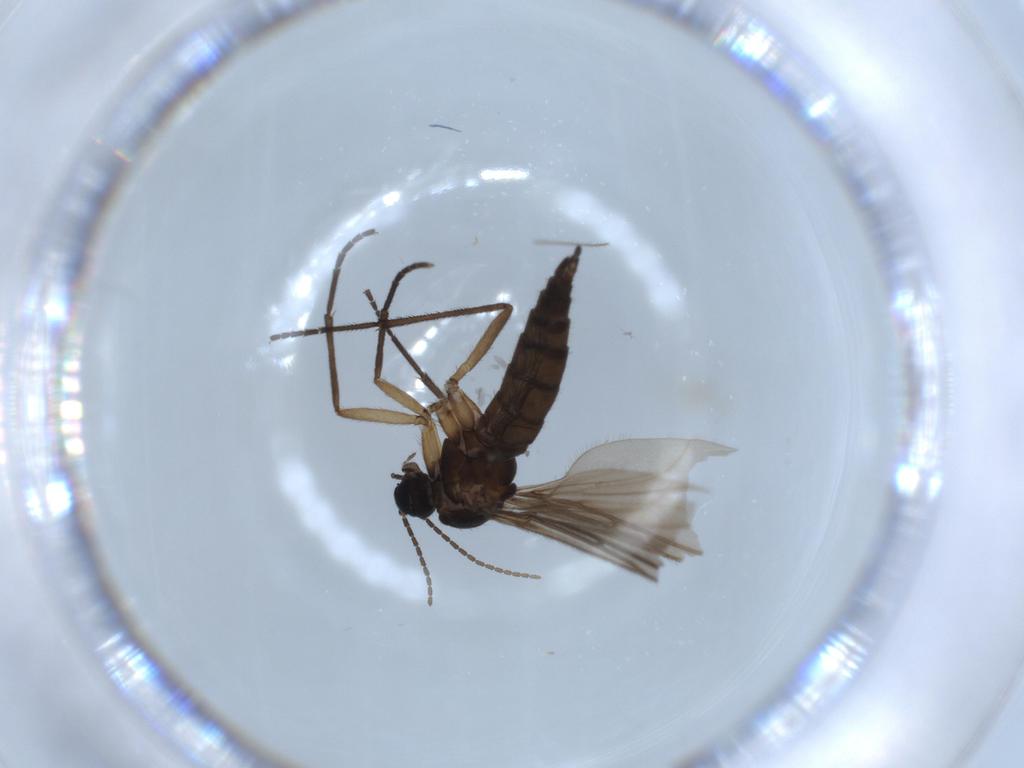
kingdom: Animalia
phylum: Arthropoda
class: Insecta
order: Diptera
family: Sciaridae
